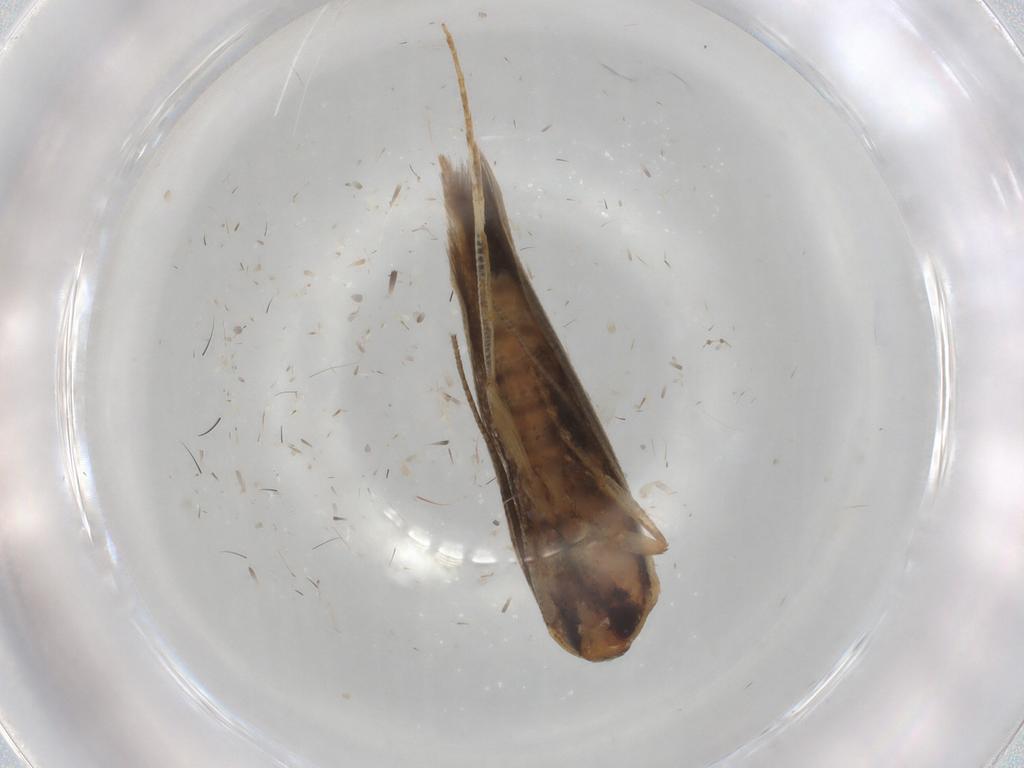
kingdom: Animalia
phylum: Arthropoda
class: Insecta
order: Lepidoptera
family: Cosmopterigidae
